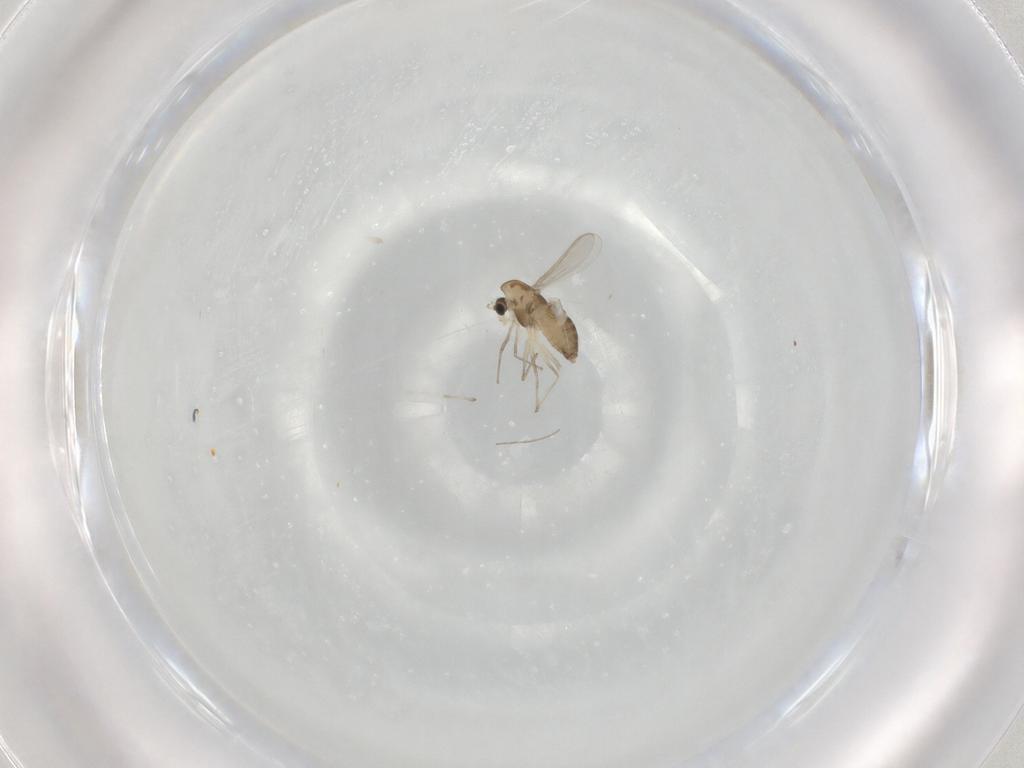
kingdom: Animalia
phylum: Arthropoda
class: Insecta
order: Diptera
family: Chironomidae
